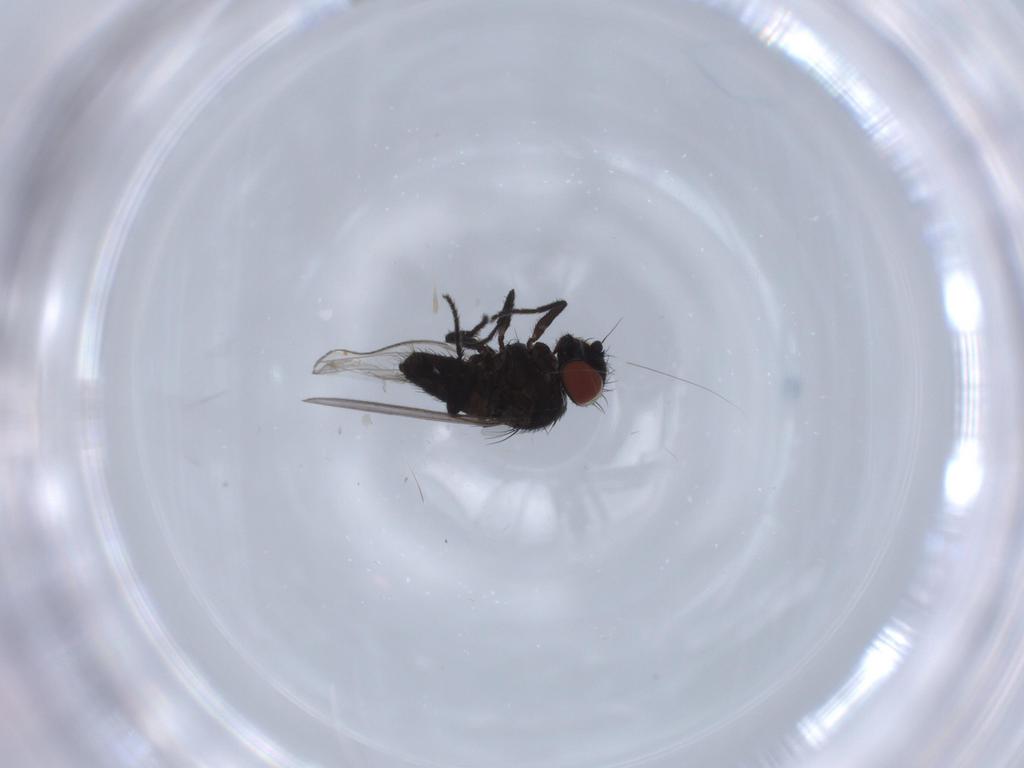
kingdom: Animalia
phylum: Arthropoda
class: Insecta
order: Diptera
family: Milichiidae
